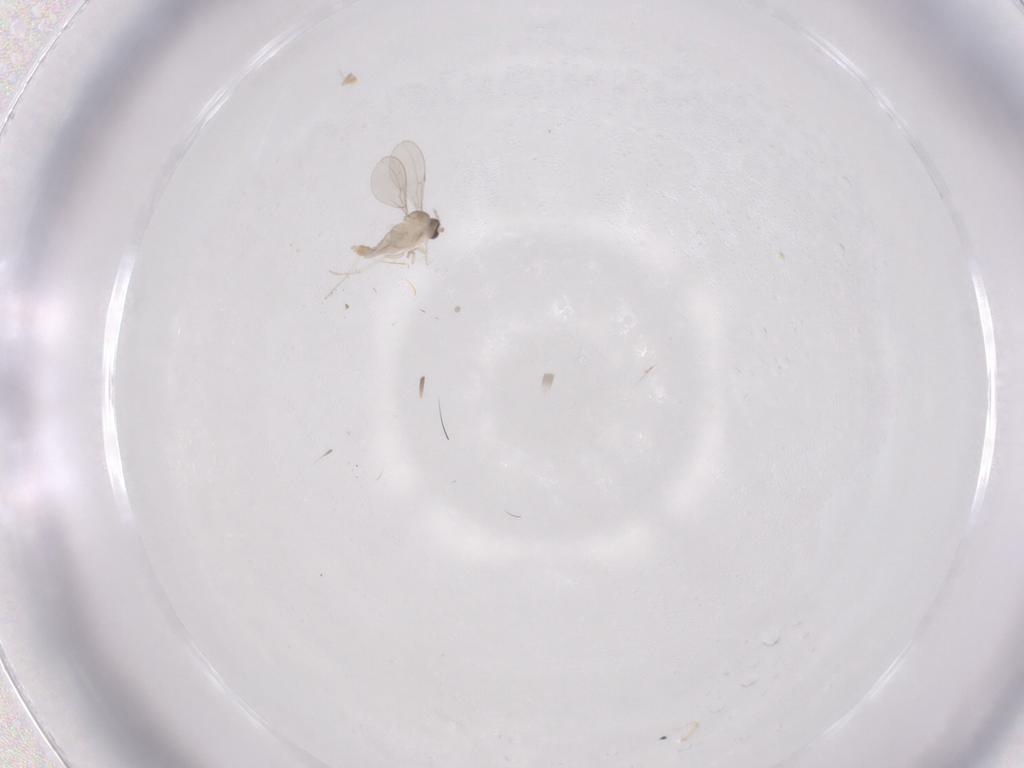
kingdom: Animalia
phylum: Arthropoda
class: Insecta
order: Diptera
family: Cecidomyiidae
